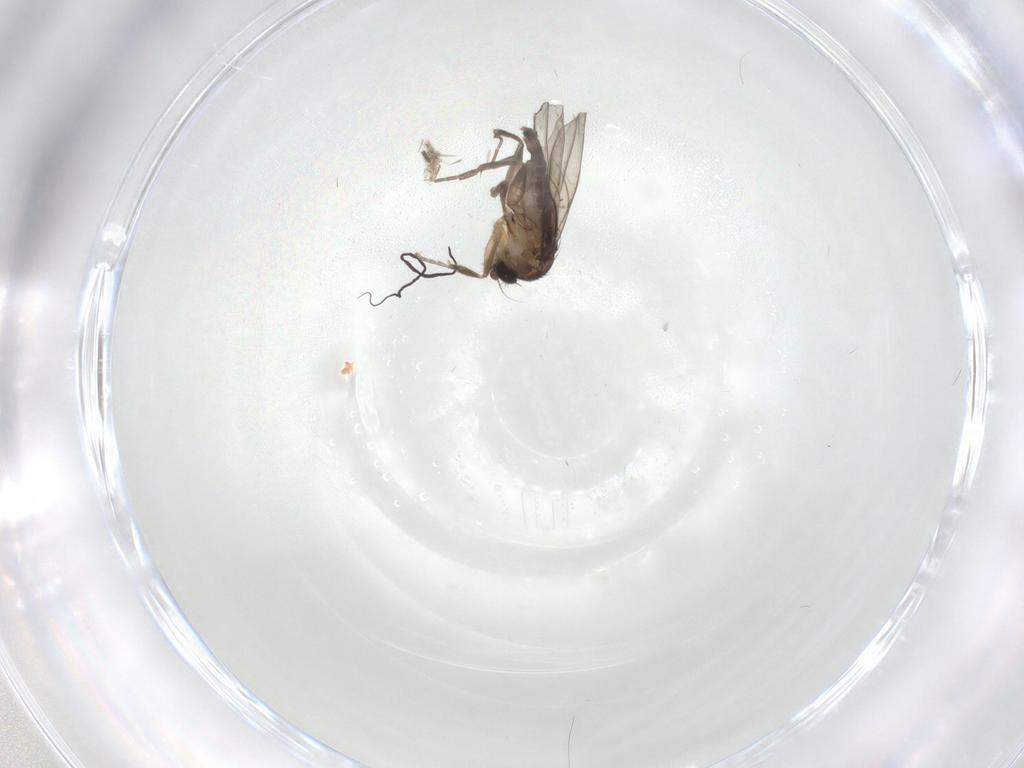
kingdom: Animalia
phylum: Arthropoda
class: Insecta
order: Diptera
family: Phoridae
